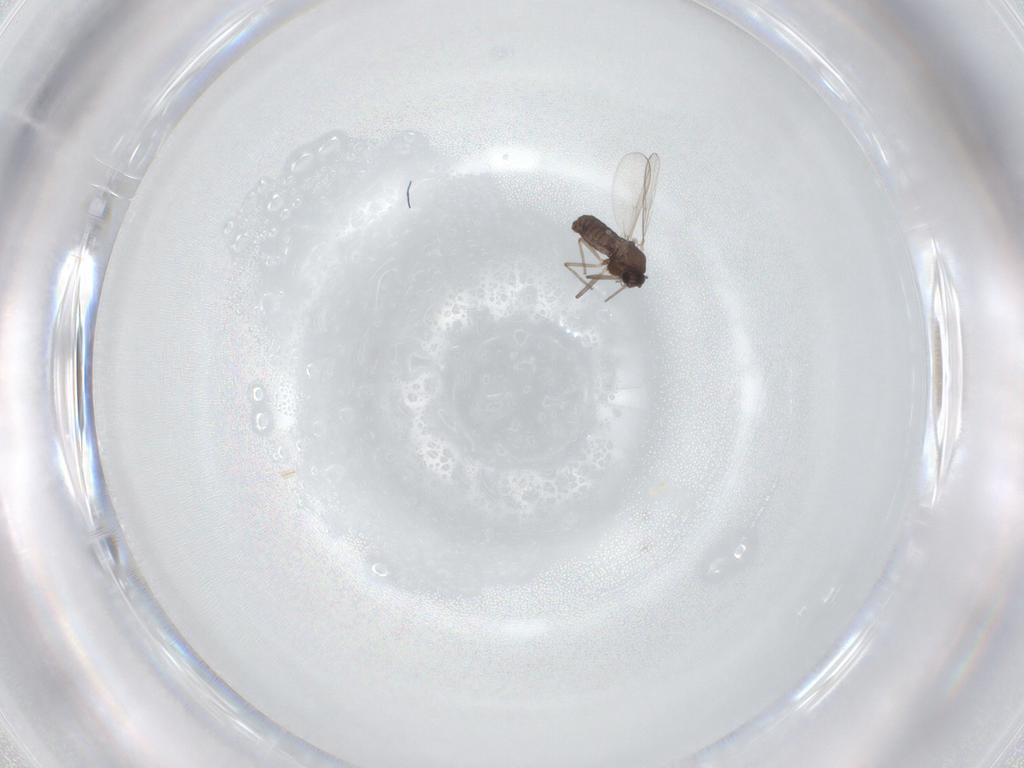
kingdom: Animalia
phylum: Arthropoda
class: Insecta
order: Diptera
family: Chironomidae
